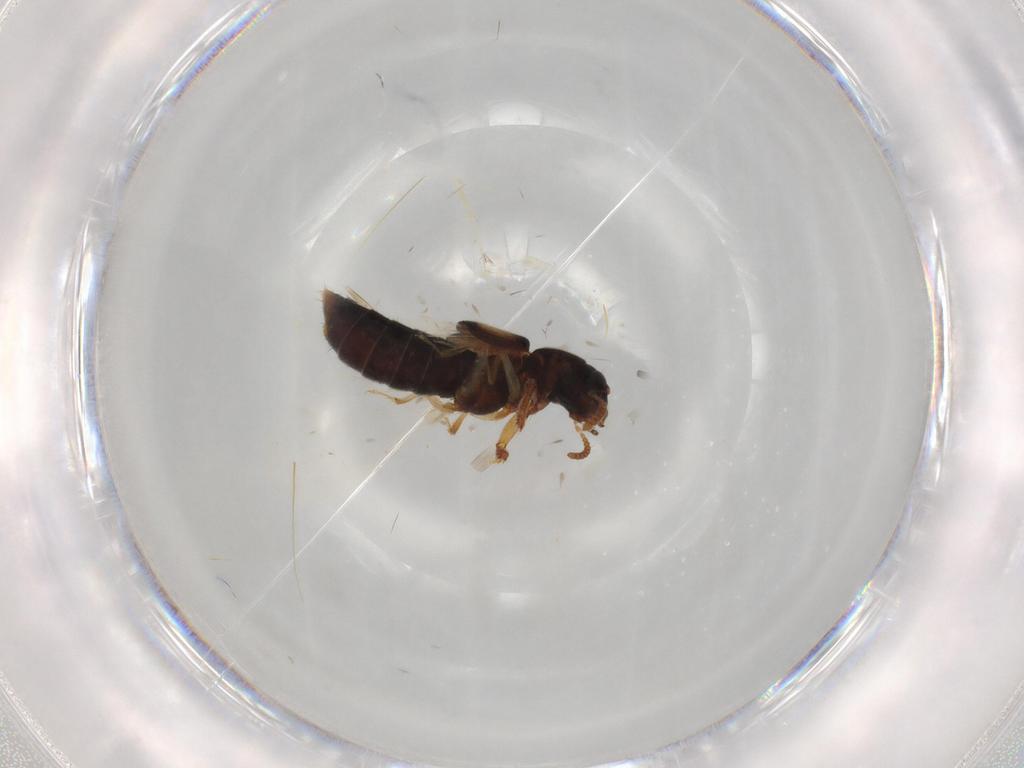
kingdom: Animalia
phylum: Arthropoda
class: Insecta
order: Coleoptera
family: Staphylinidae
